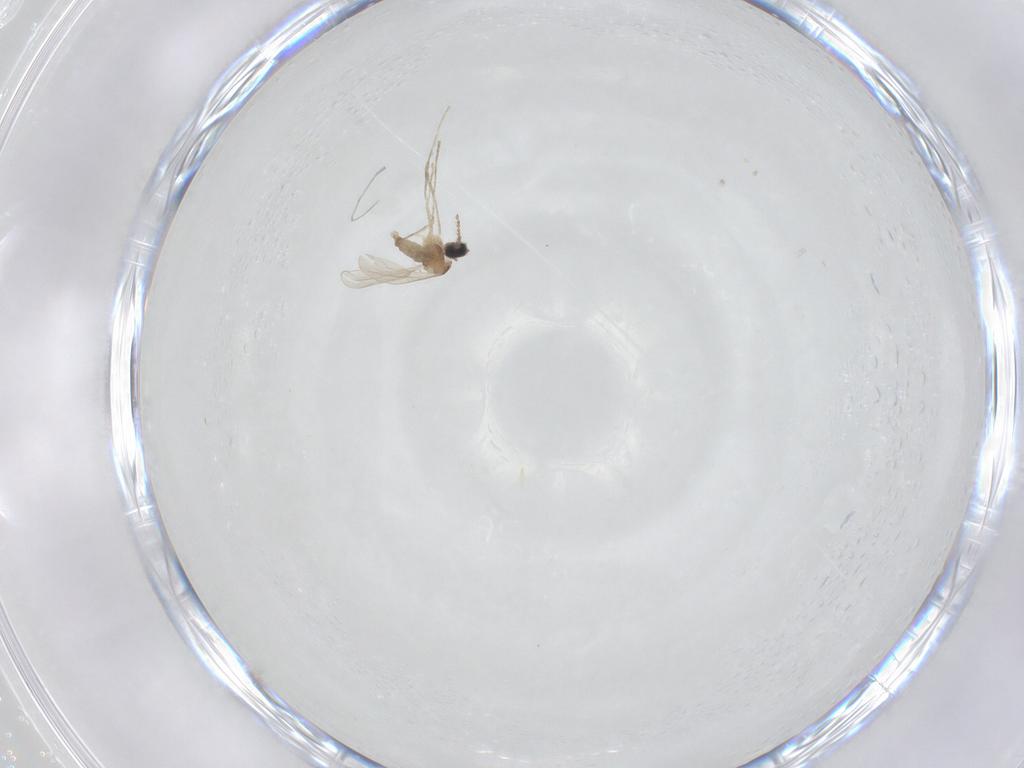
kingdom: Animalia
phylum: Arthropoda
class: Insecta
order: Diptera
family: Cecidomyiidae
